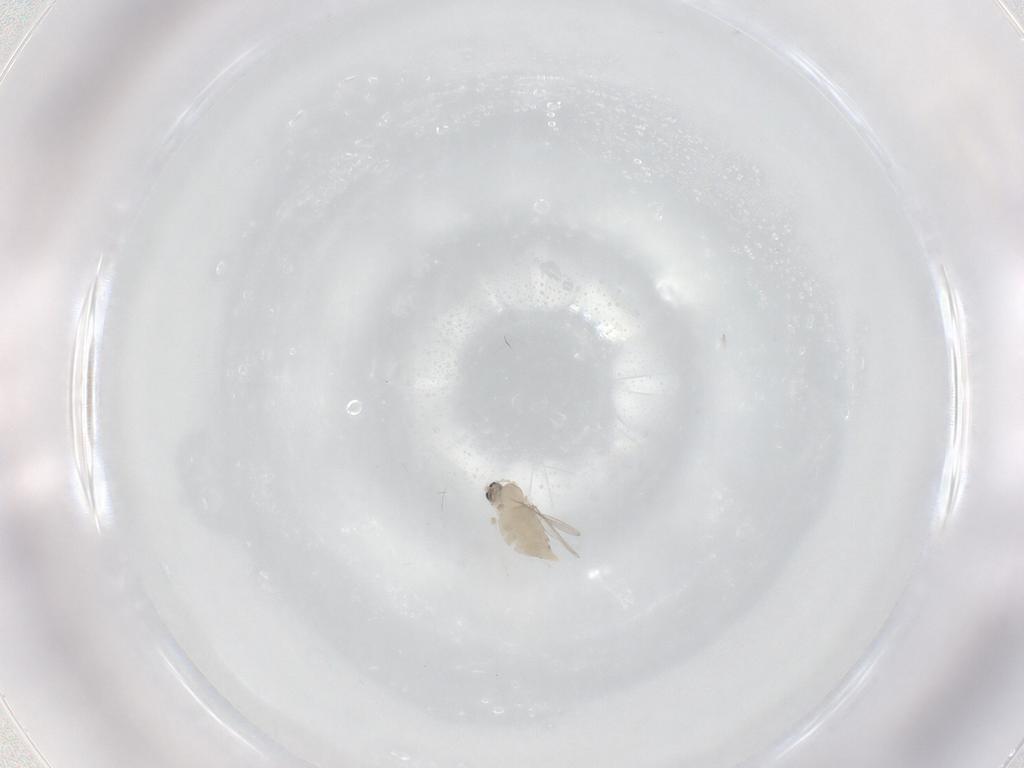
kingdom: Animalia
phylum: Arthropoda
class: Insecta
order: Diptera
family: Cecidomyiidae
